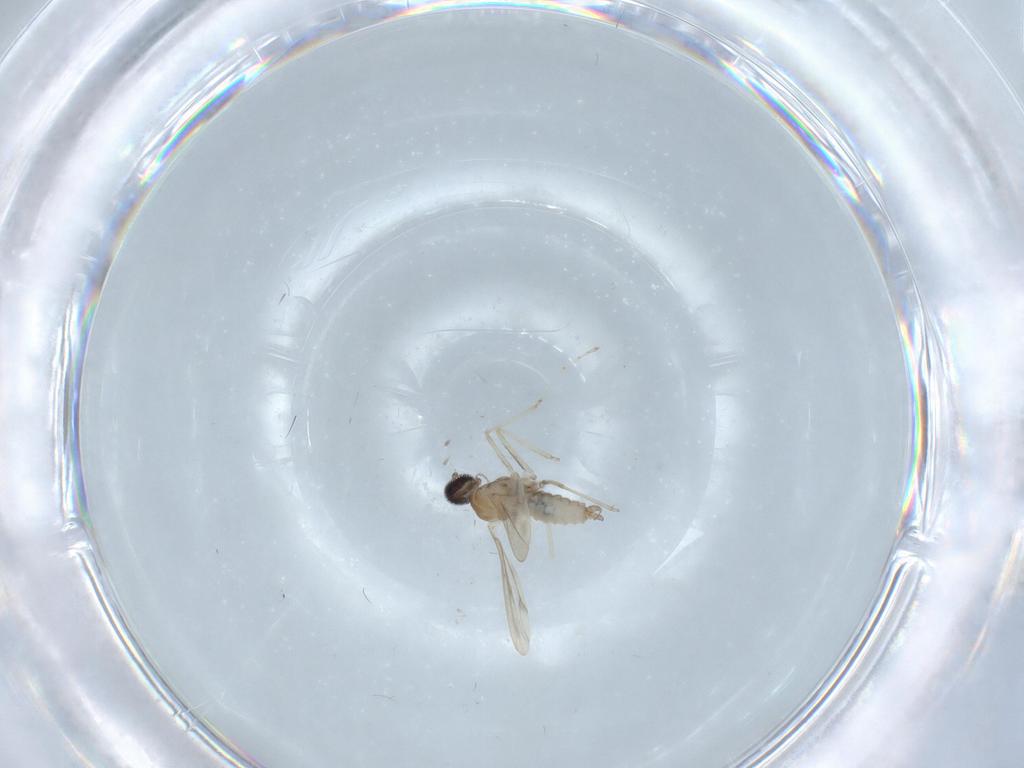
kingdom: Animalia
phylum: Arthropoda
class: Insecta
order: Diptera
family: Cecidomyiidae
